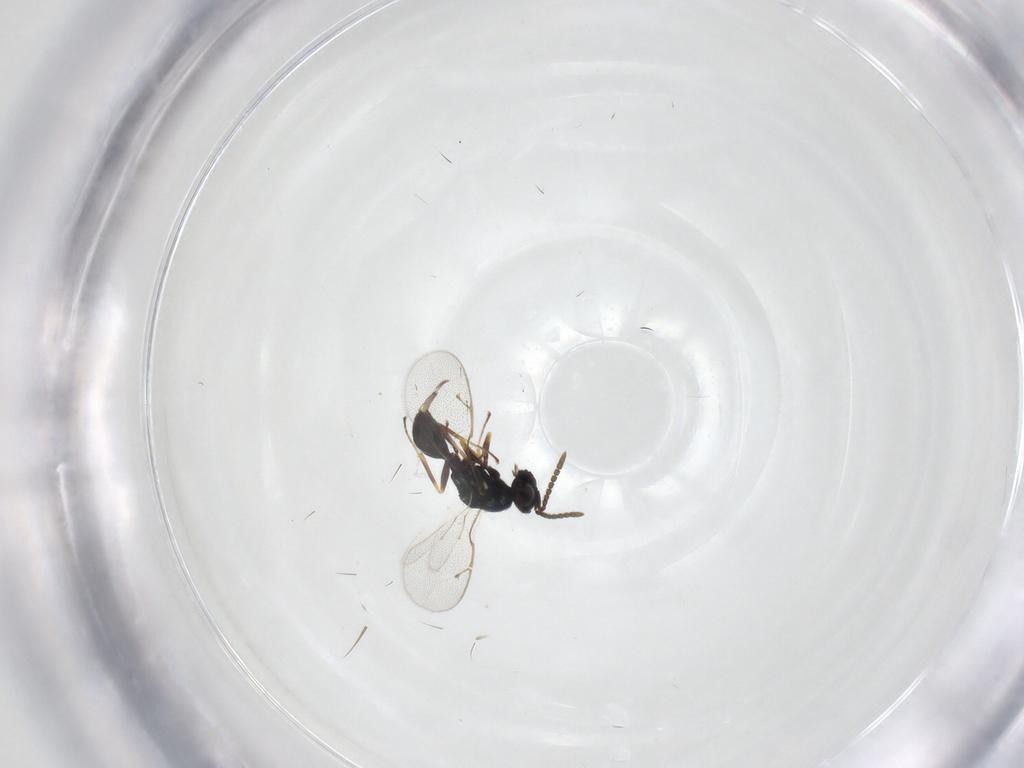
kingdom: Animalia
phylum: Arthropoda
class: Insecta
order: Hymenoptera
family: Pteromalidae
